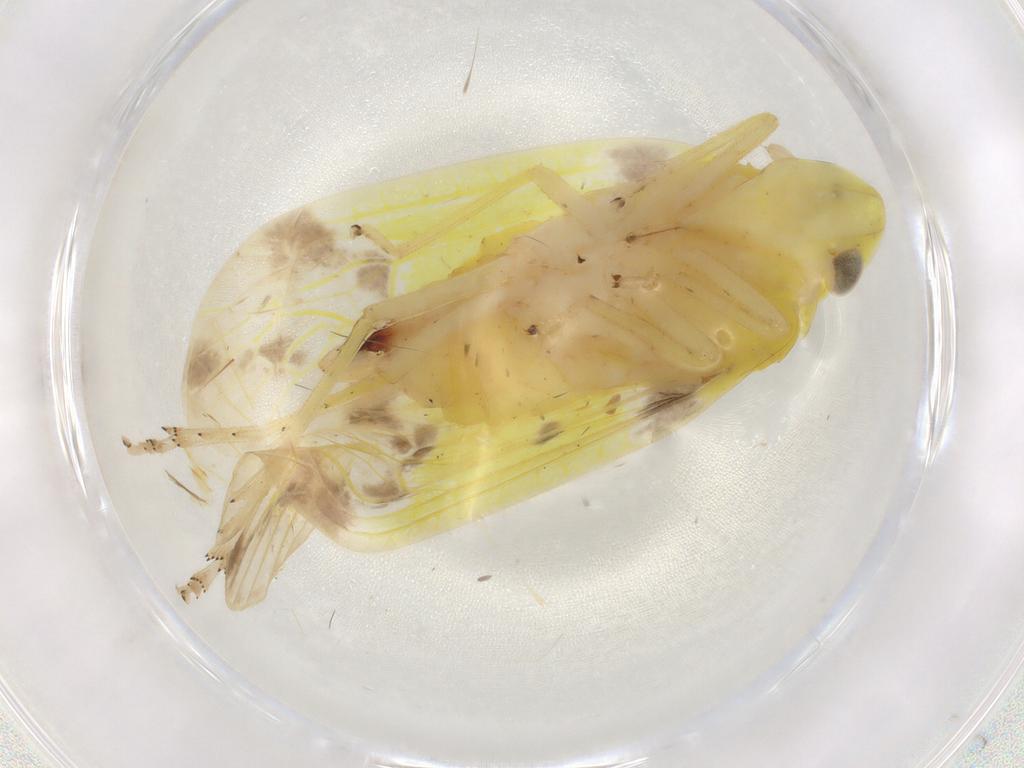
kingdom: Animalia
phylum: Arthropoda
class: Insecta
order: Hemiptera
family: Tropiduchidae
